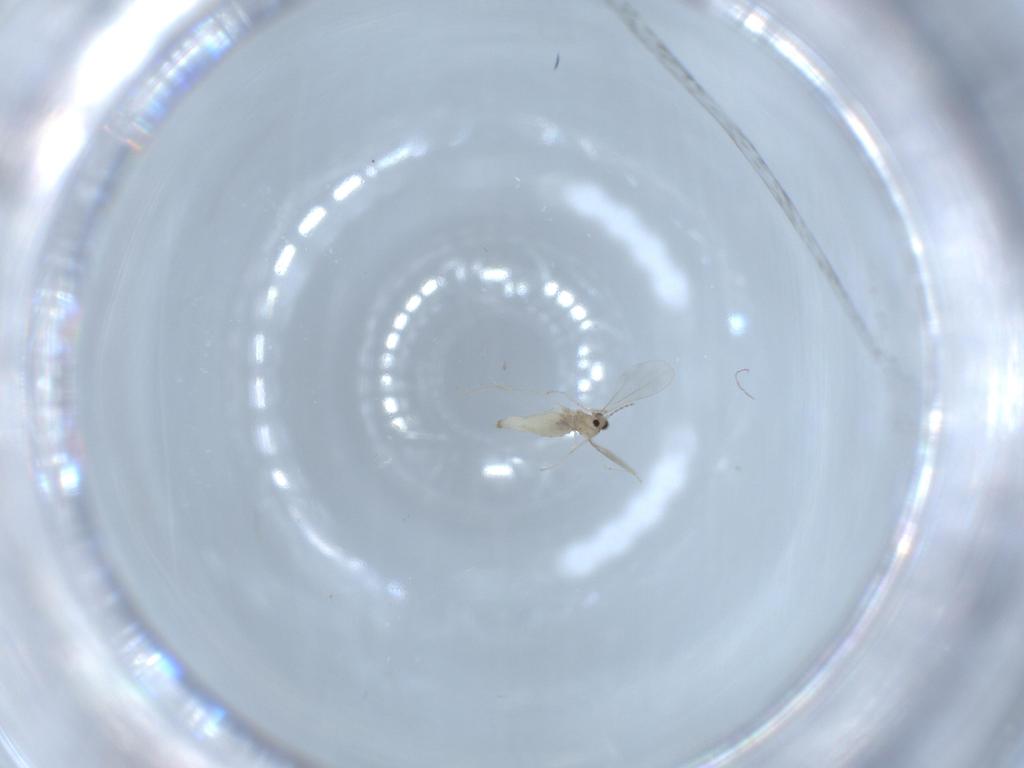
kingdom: Animalia
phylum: Arthropoda
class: Insecta
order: Diptera
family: Cecidomyiidae
